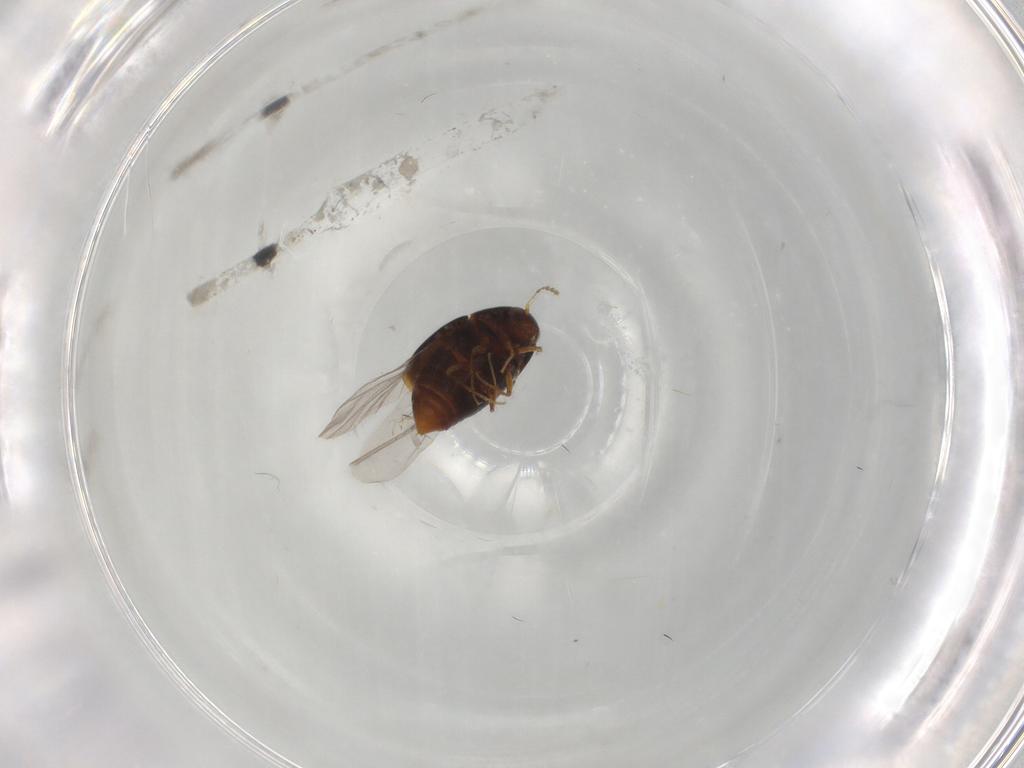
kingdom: Animalia
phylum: Arthropoda
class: Insecta
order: Coleoptera
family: Staphylinidae
